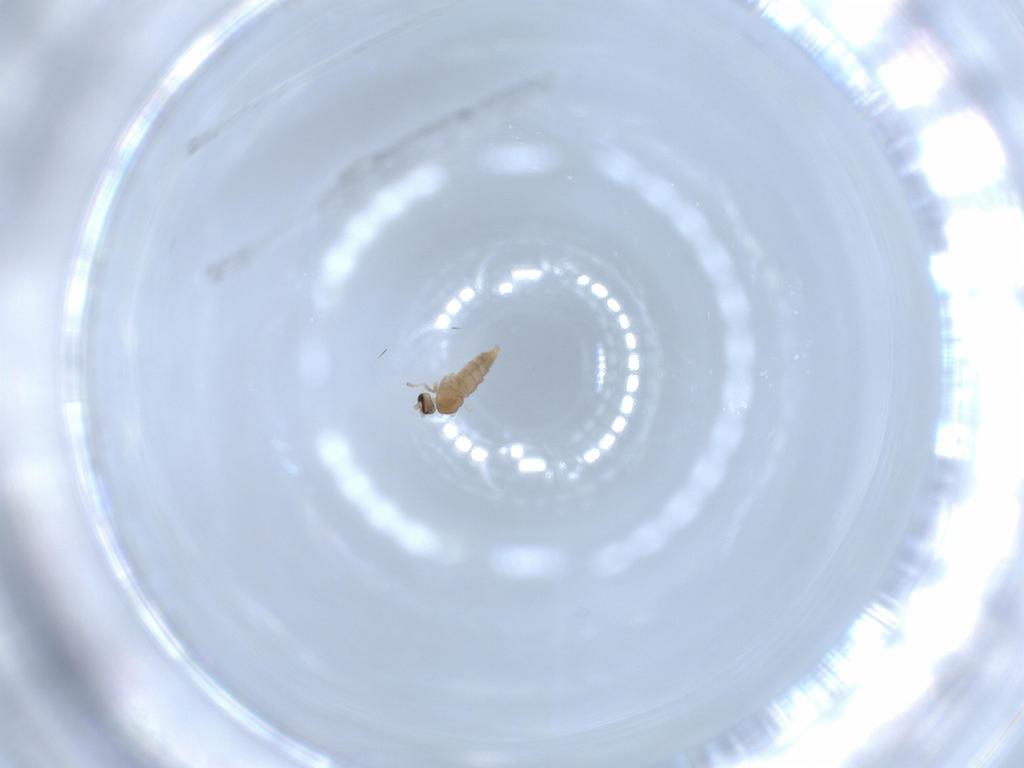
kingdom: Animalia
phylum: Arthropoda
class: Insecta
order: Diptera
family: Cecidomyiidae
